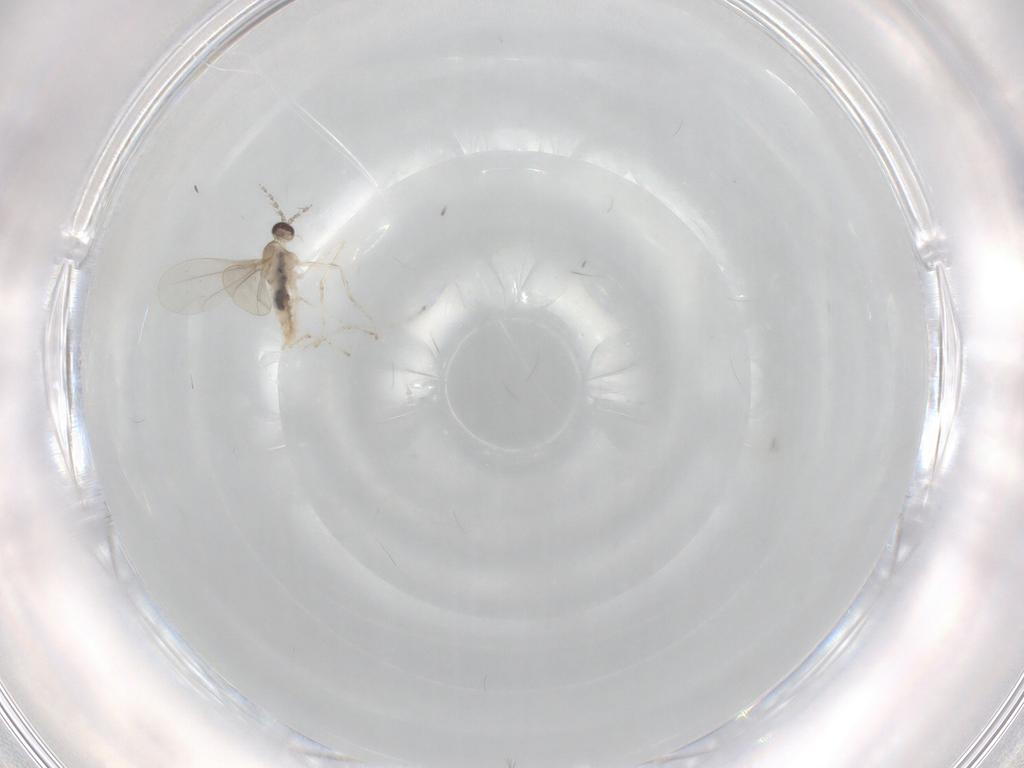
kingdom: Animalia
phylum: Arthropoda
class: Insecta
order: Diptera
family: Cecidomyiidae
